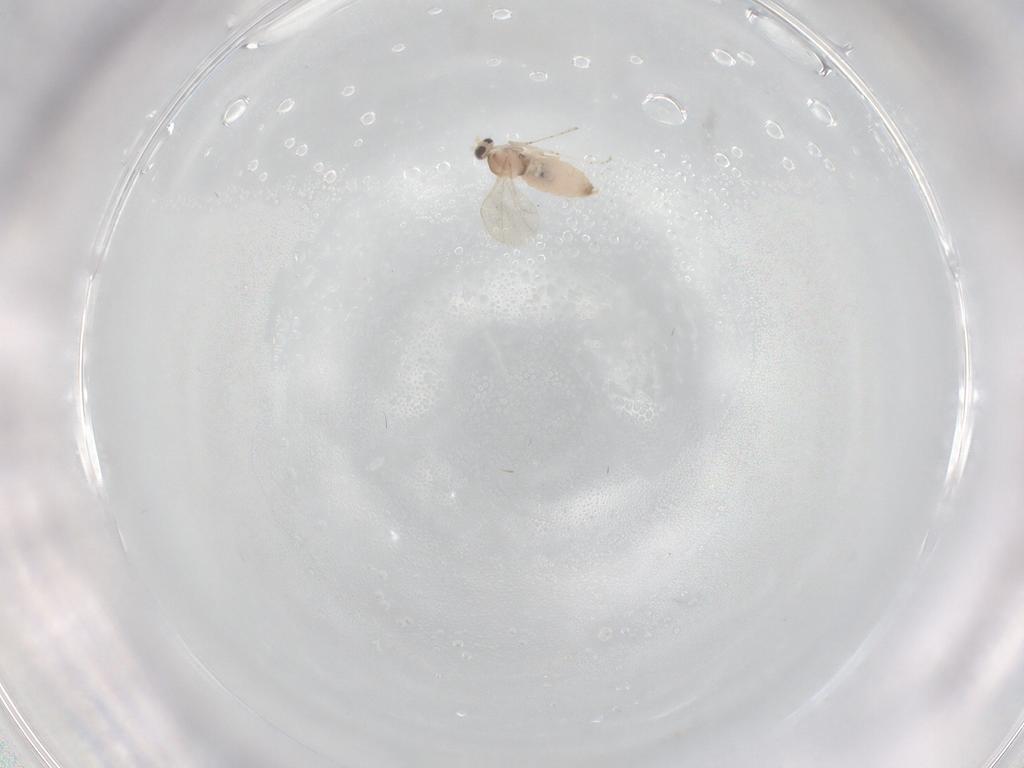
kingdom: Animalia
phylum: Arthropoda
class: Insecta
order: Diptera
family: Cecidomyiidae
